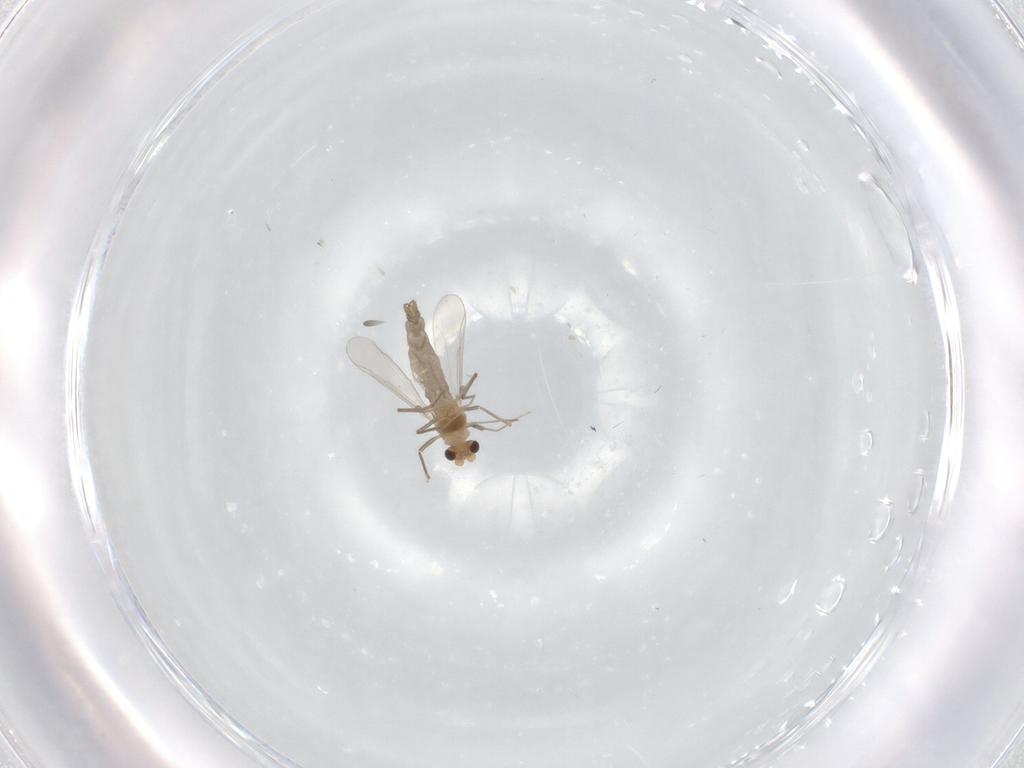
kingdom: Animalia
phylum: Arthropoda
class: Insecta
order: Diptera
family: Chironomidae
